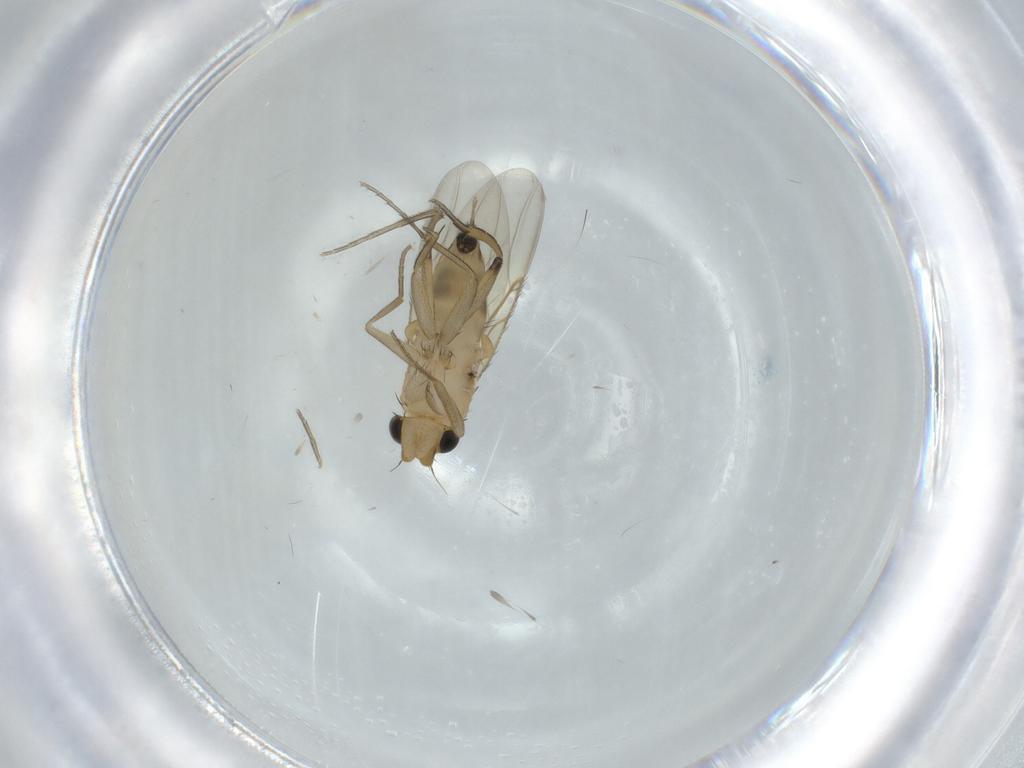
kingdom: Animalia
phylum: Arthropoda
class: Insecta
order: Diptera
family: Phoridae
